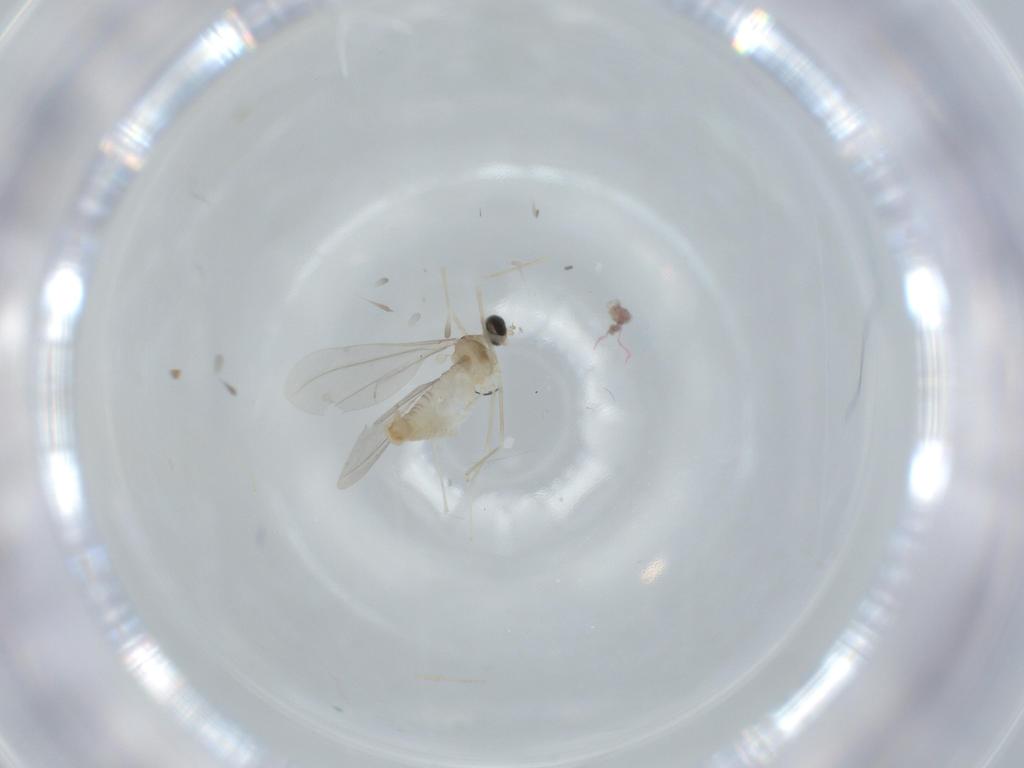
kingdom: Animalia
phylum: Arthropoda
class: Insecta
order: Diptera
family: Cecidomyiidae
